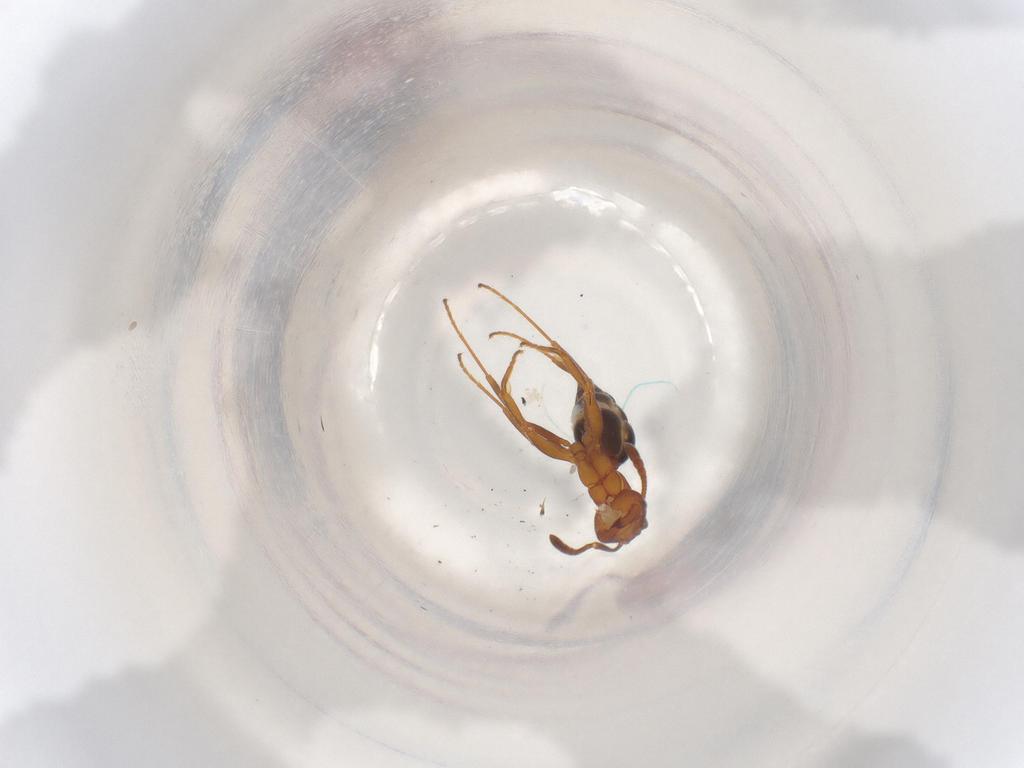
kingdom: Animalia
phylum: Arthropoda
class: Insecta
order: Hymenoptera
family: Formicidae
